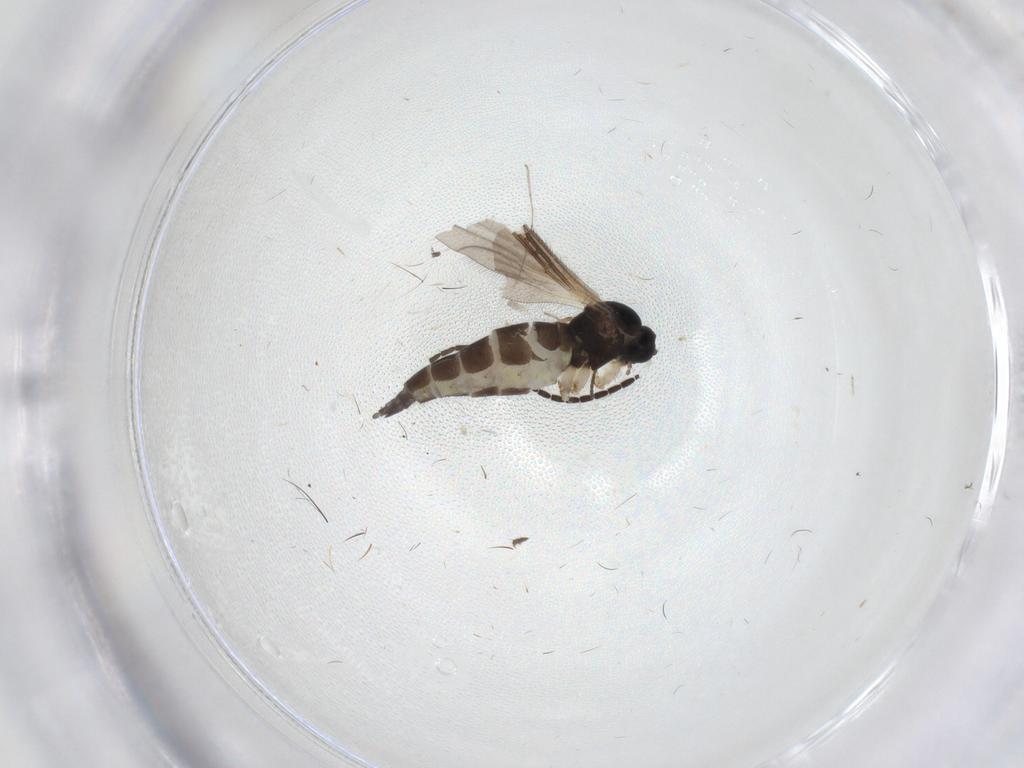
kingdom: Animalia
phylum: Arthropoda
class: Insecta
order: Diptera
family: Sciaridae
